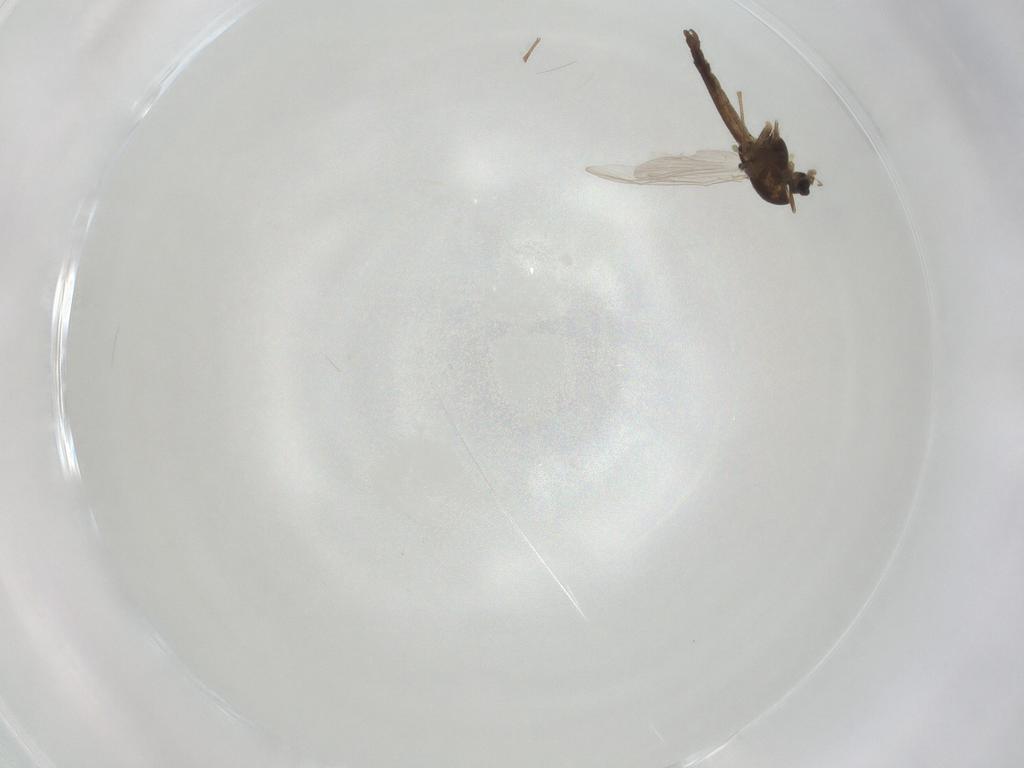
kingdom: Animalia
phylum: Arthropoda
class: Insecta
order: Diptera
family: Chironomidae
